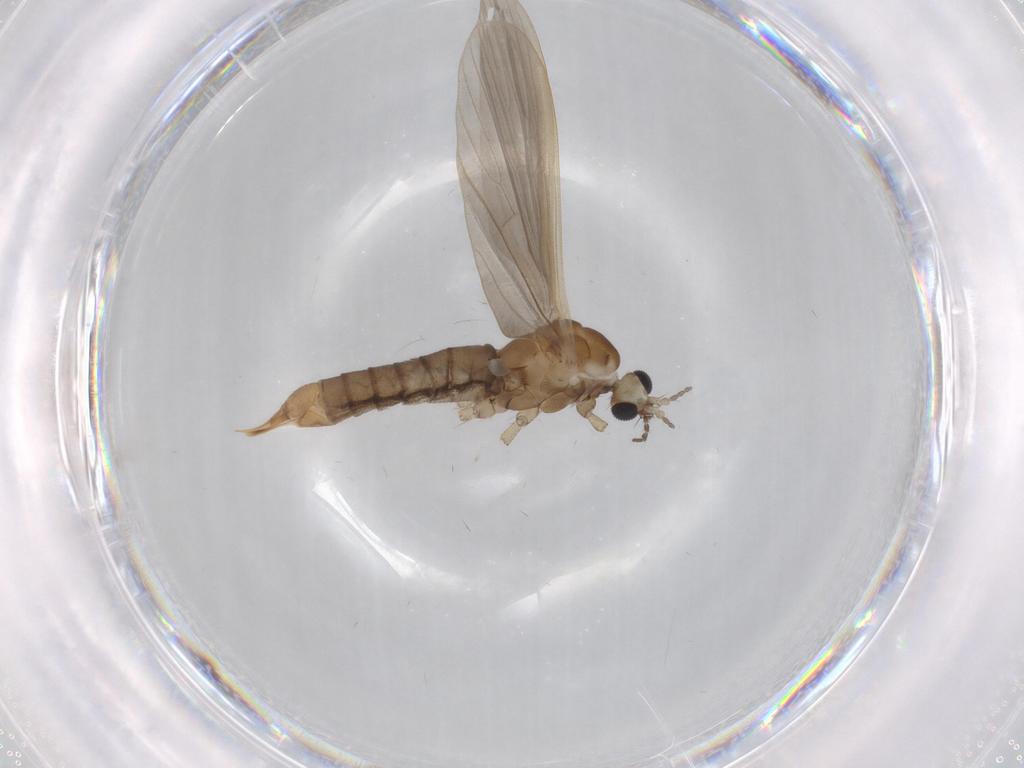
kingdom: Animalia
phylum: Arthropoda
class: Insecta
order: Diptera
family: Cecidomyiidae
